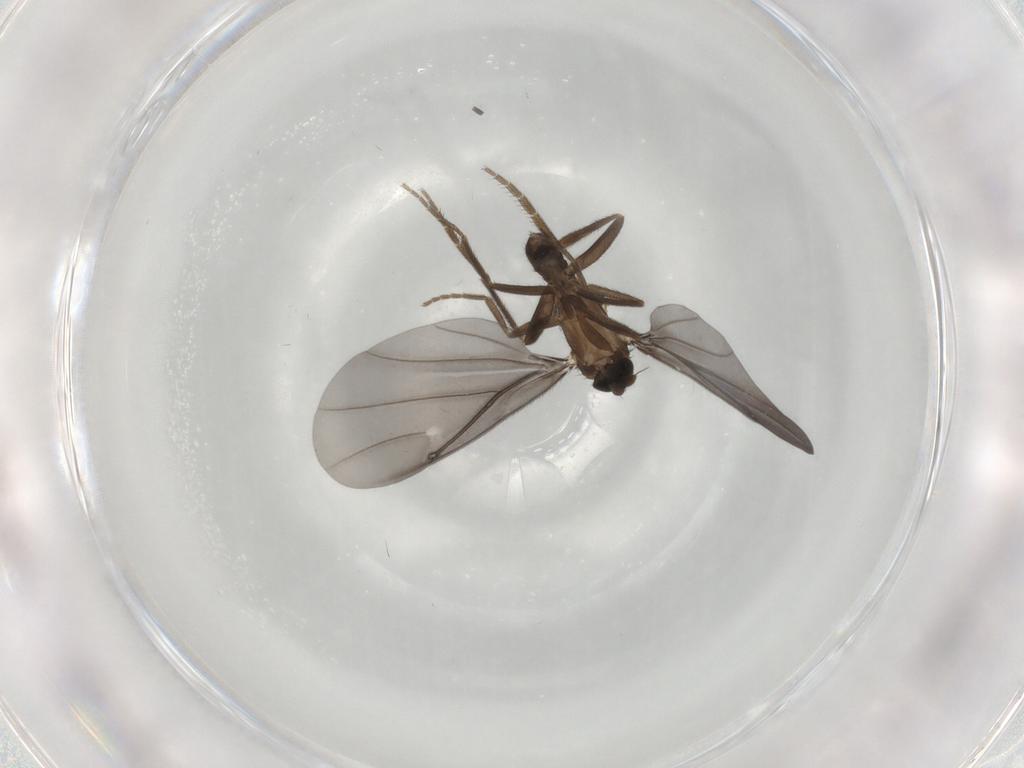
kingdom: Animalia
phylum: Arthropoda
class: Insecta
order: Diptera
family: Phoridae
